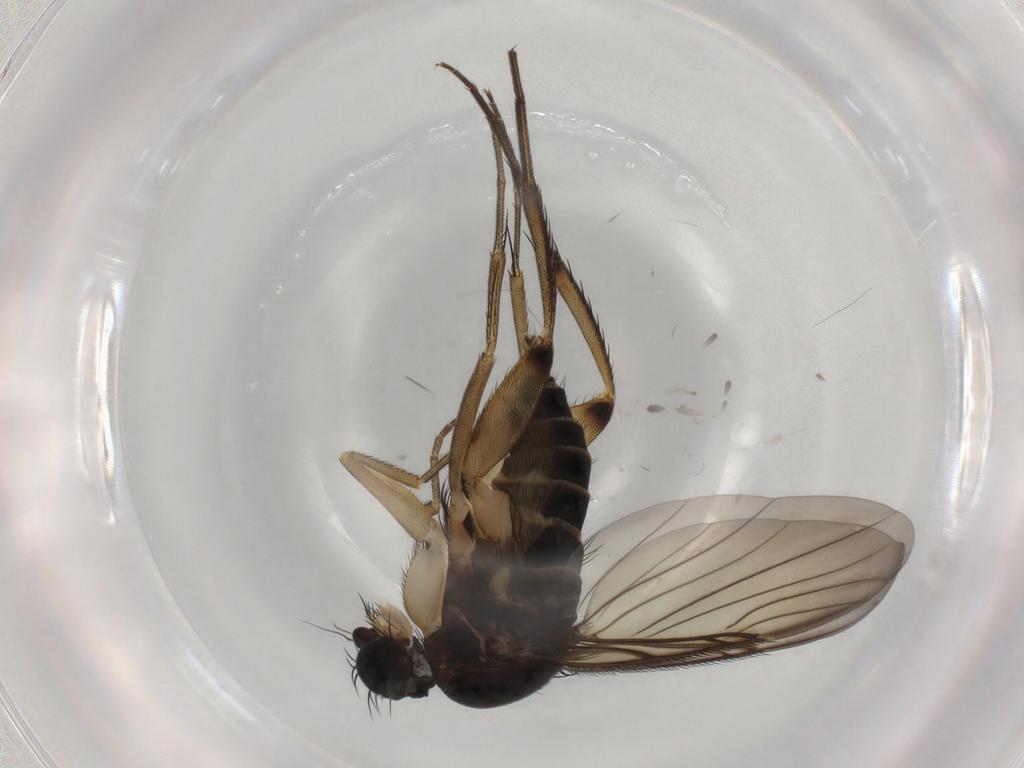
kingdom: Animalia
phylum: Arthropoda
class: Insecta
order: Diptera
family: Phoridae
